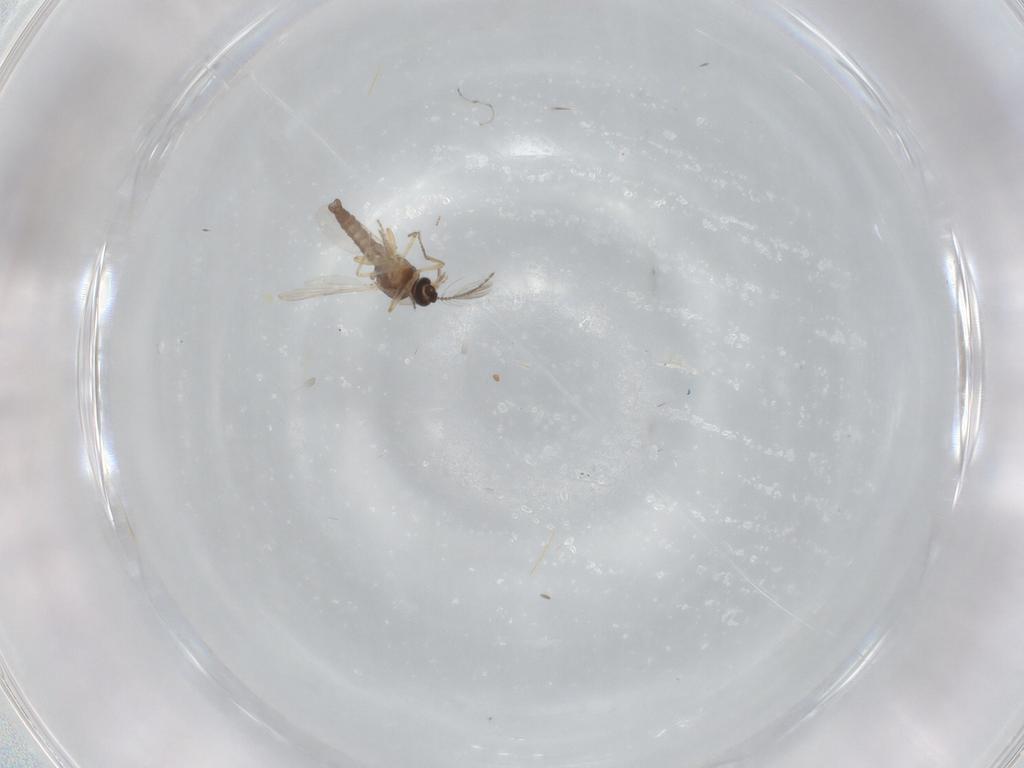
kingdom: Animalia
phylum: Arthropoda
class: Insecta
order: Diptera
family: Ceratopogonidae
